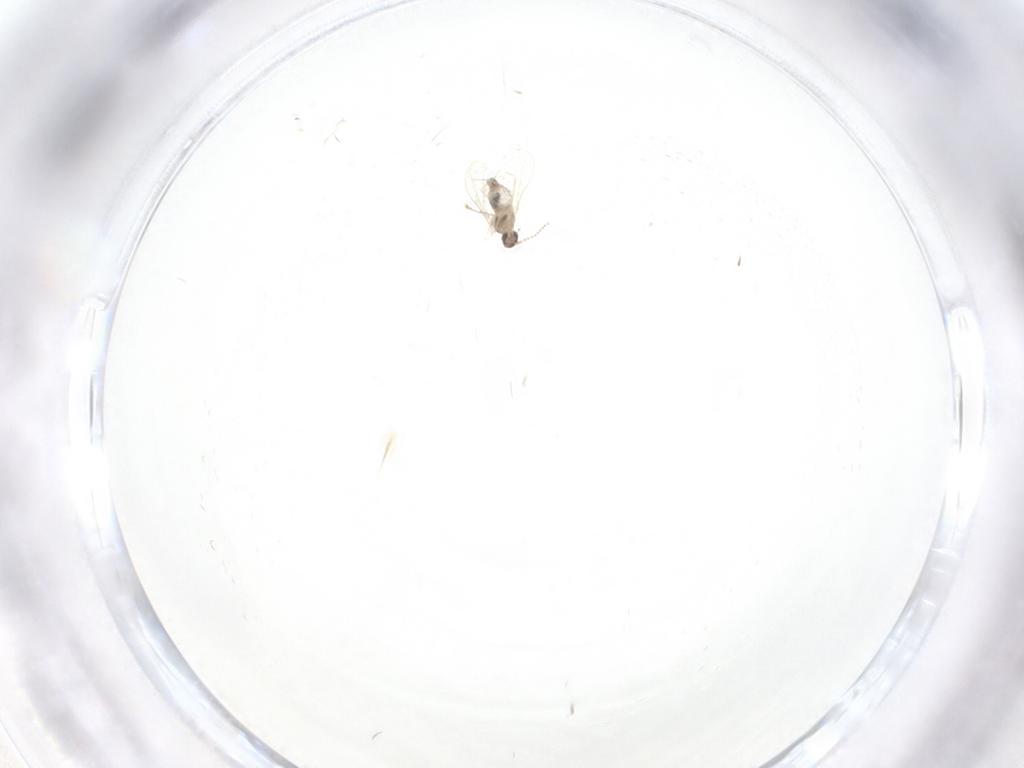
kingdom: Animalia
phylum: Arthropoda
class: Insecta
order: Diptera
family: Cecidomyiidae
